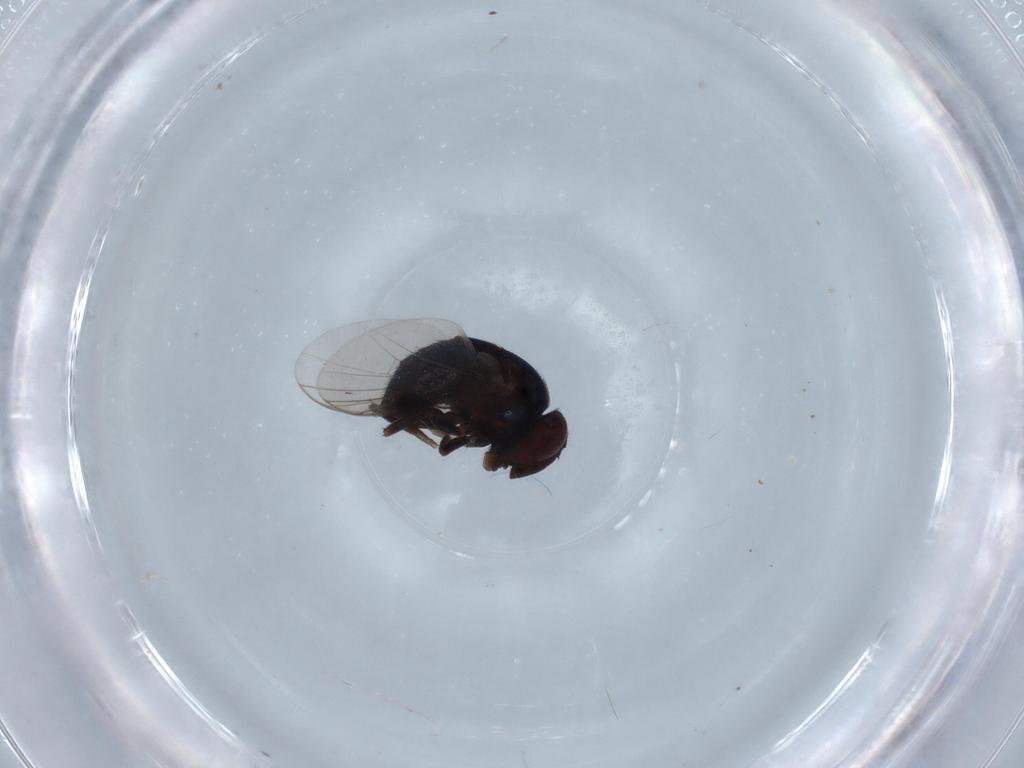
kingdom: Animalia
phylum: Arthropoda
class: Insecta
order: Diptera
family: Cryptochetidae
